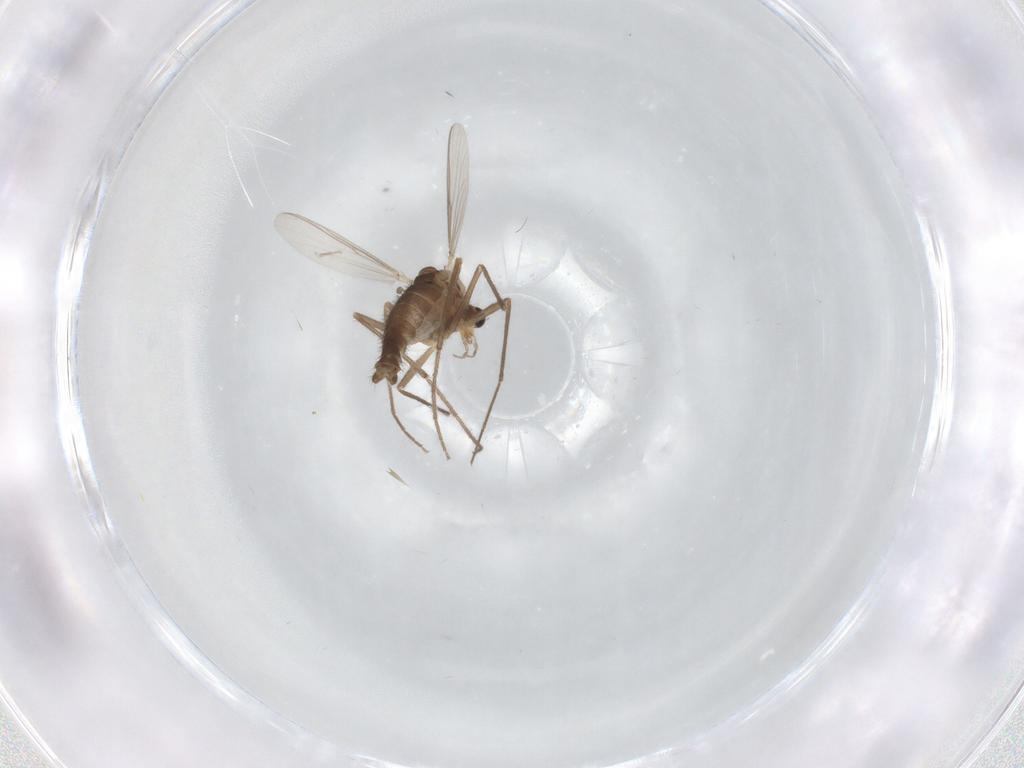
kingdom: Animalia
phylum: Arthropoda
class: Insecta
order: Diptera
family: Chironomidae
